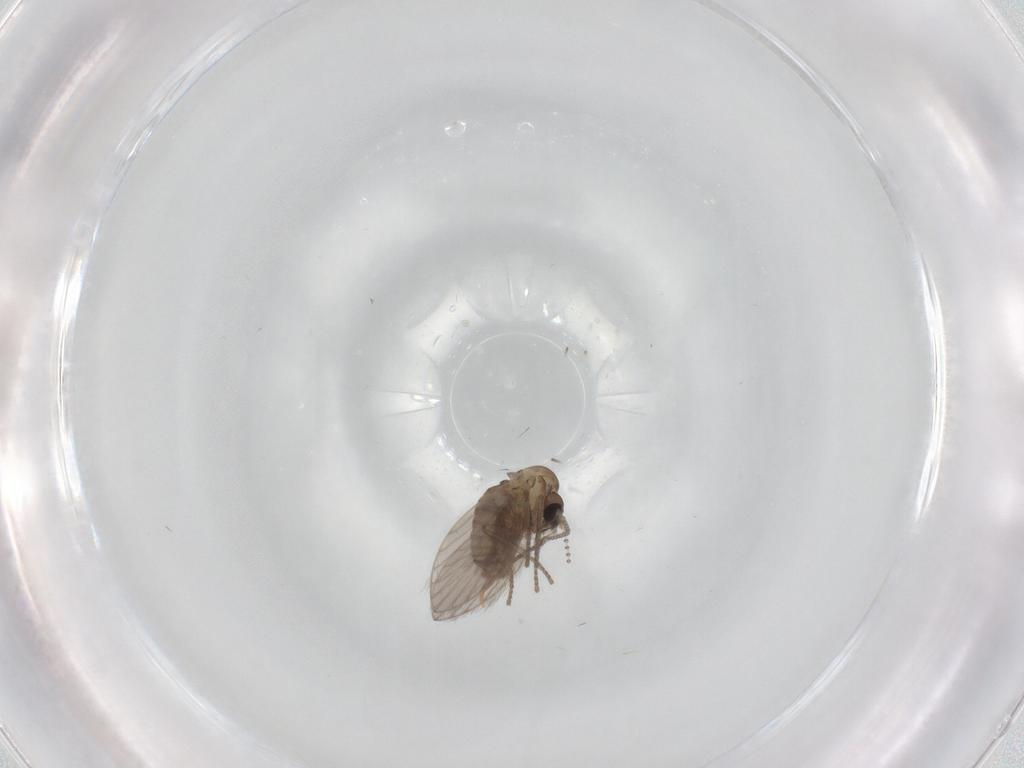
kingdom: Animalia
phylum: Arthropoda
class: Insecta
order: Diptera
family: Psychodidae
